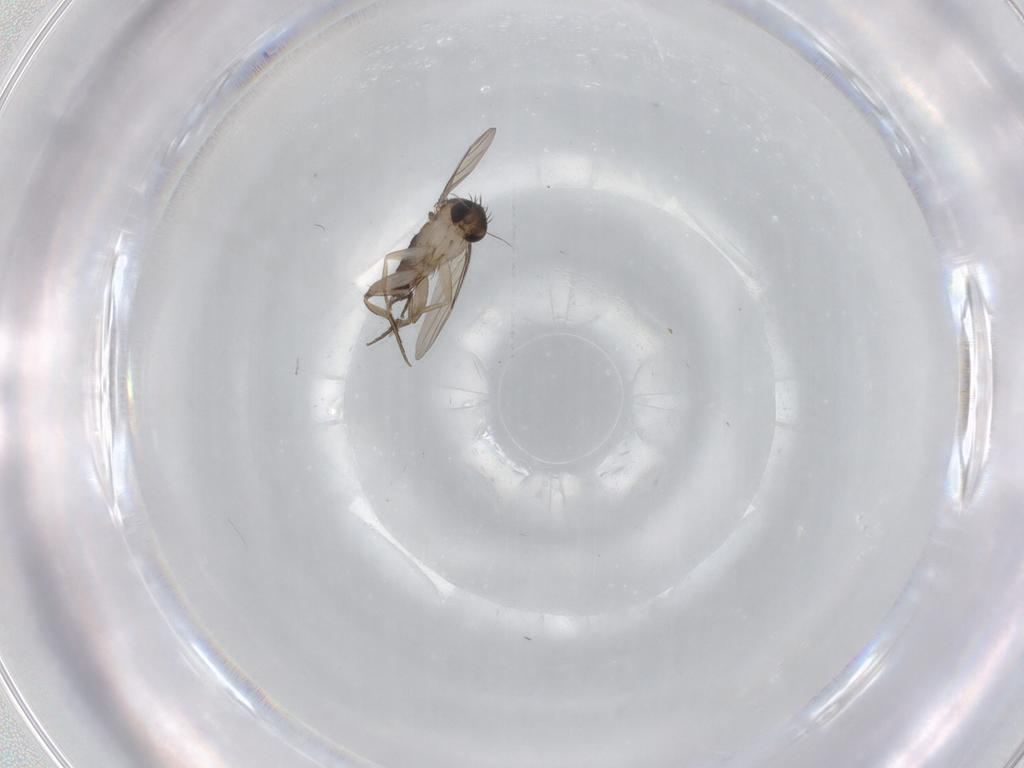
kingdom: Animalia
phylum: Arthropoda
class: Insecta
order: Diptera
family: Phoridae
